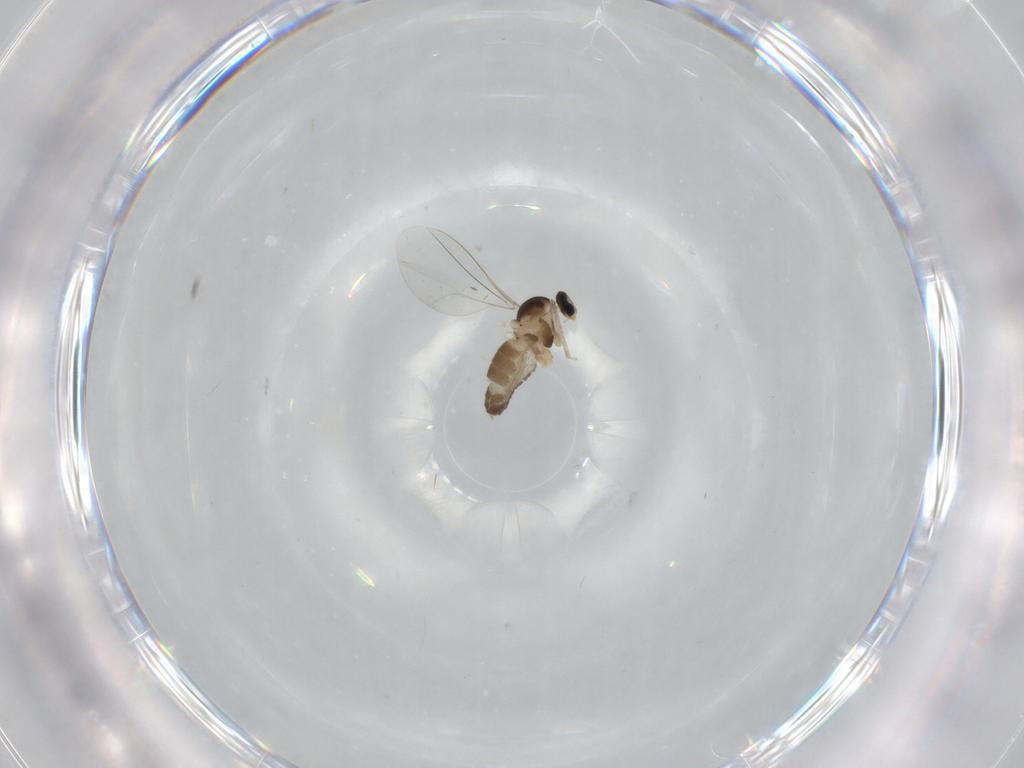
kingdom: Animalia
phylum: Arthropoda
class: Insecta
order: Diptera
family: Cecidomyiidae
